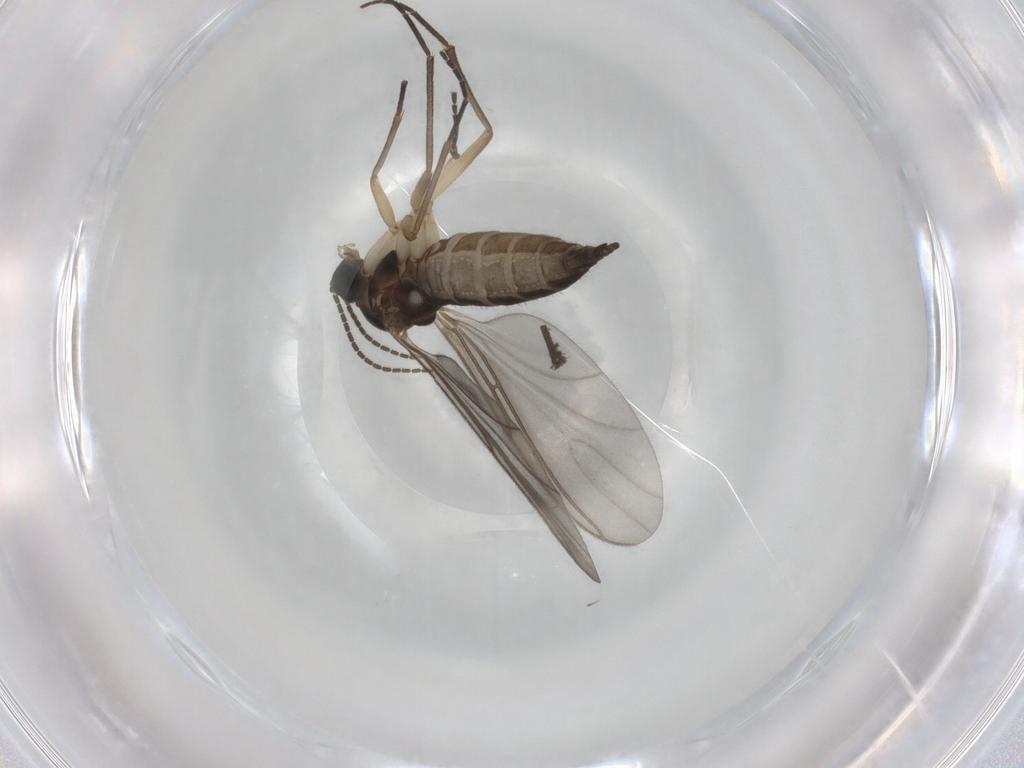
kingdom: Animalia
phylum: Arthropoda
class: Insecta
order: Diptera
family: Sciaridae
